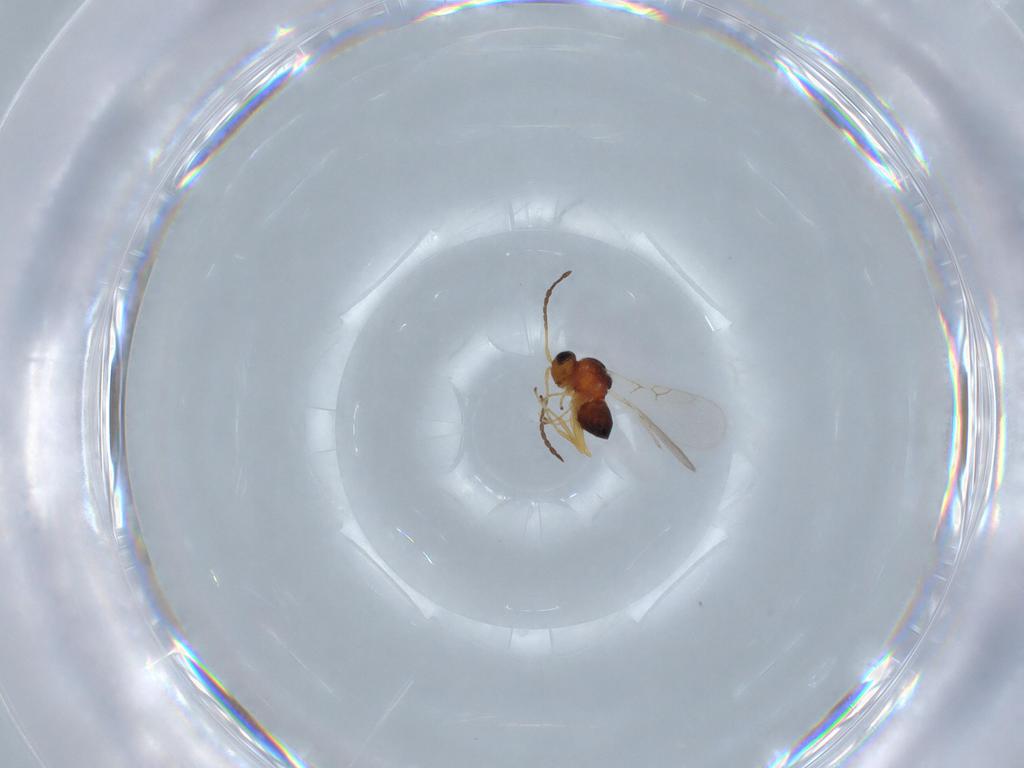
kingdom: Animalia
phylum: Arthropoda
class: Insecta
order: Hymenoptera
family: Figitidae
